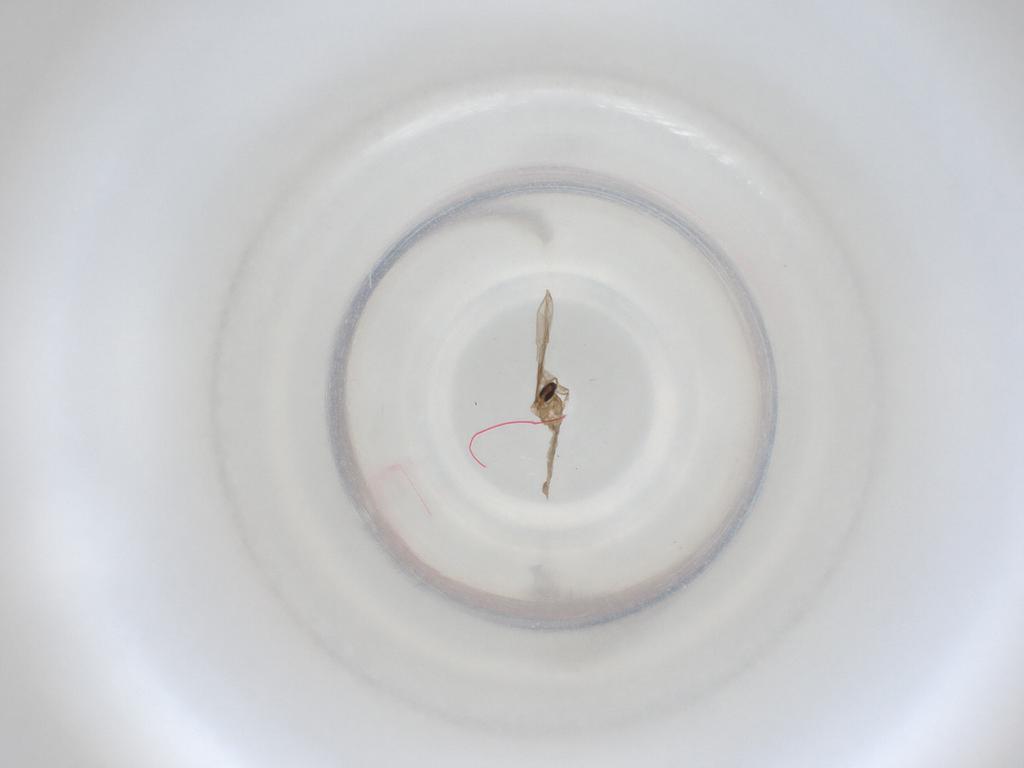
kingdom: Animalia
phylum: Arthropoda
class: Insecta
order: Diptera
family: Cecidomyiidae
